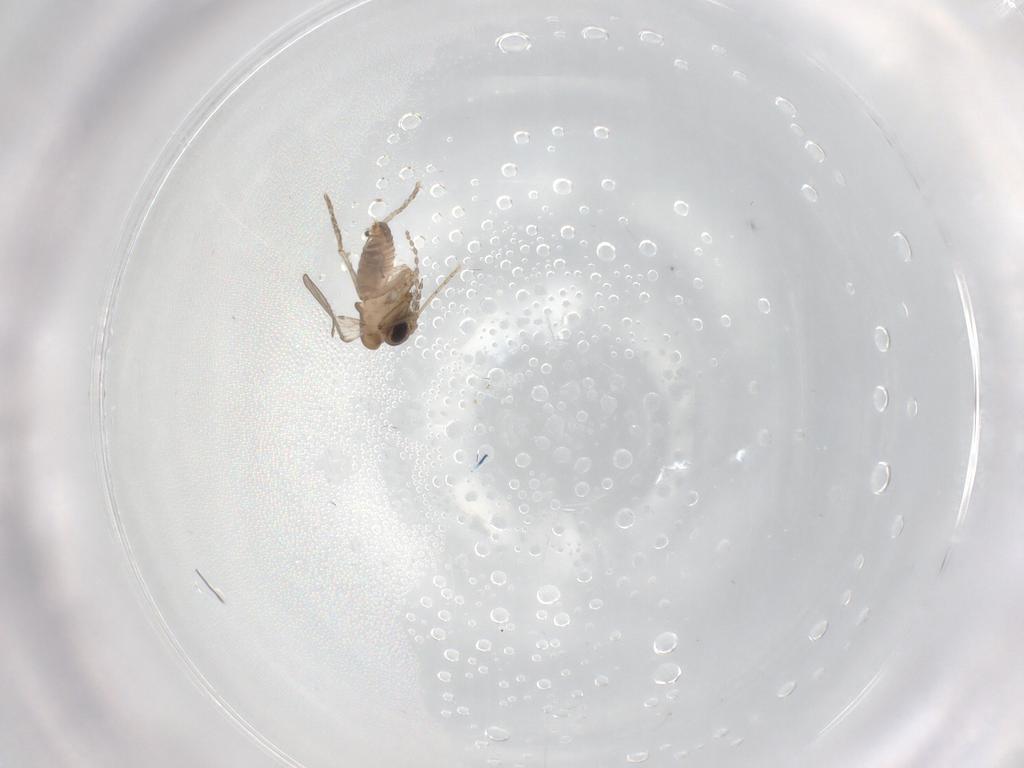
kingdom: Animalia
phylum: Arthropoda
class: Insecta
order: Diptera
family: Psychodidae
